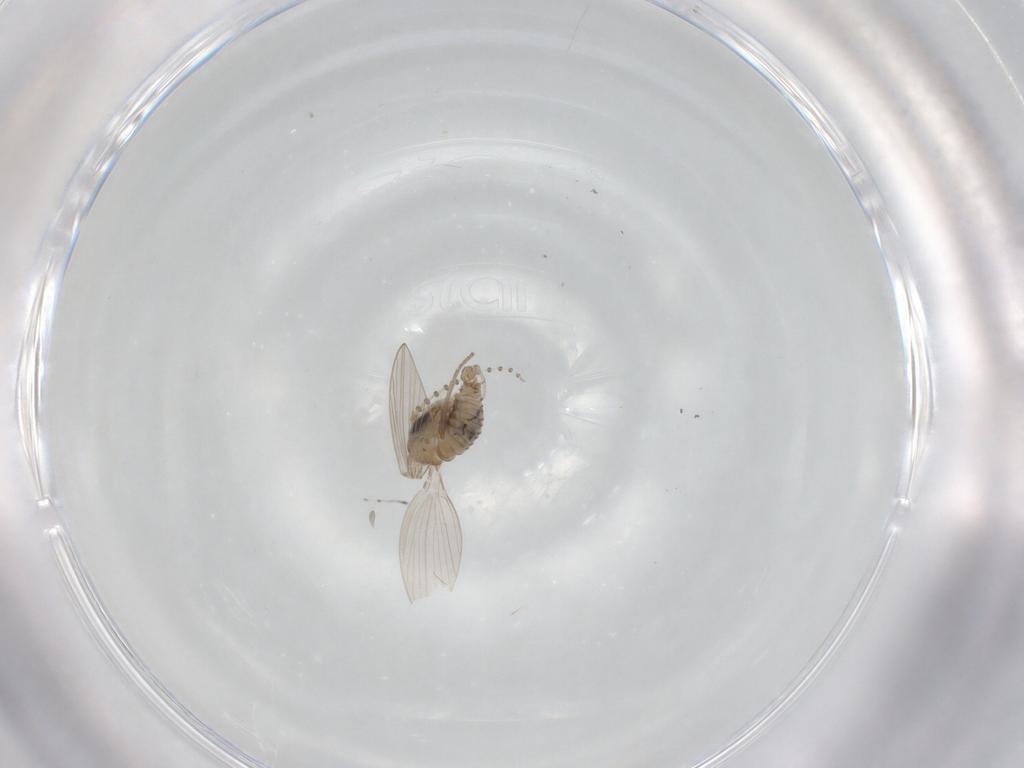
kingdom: Animalia
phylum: Arthropoda
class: Insecta
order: Diptera
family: Psychodidae
